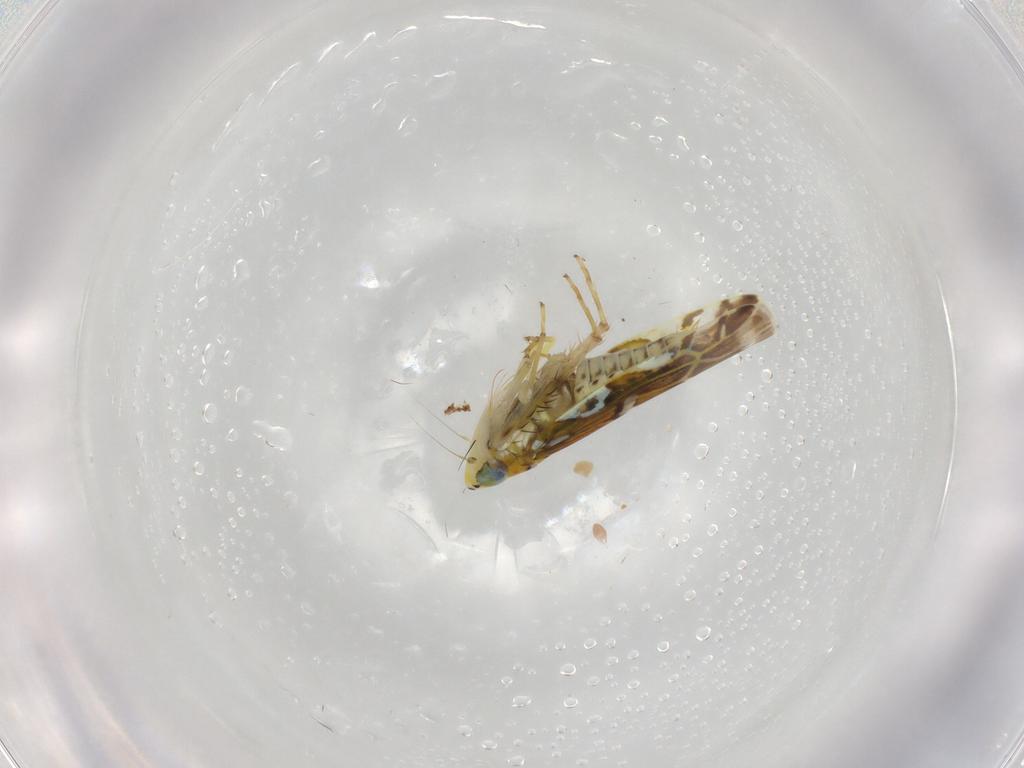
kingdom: Animalia
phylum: Arthropoda
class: Insecta
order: Hemiptera
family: Cicadellidae
